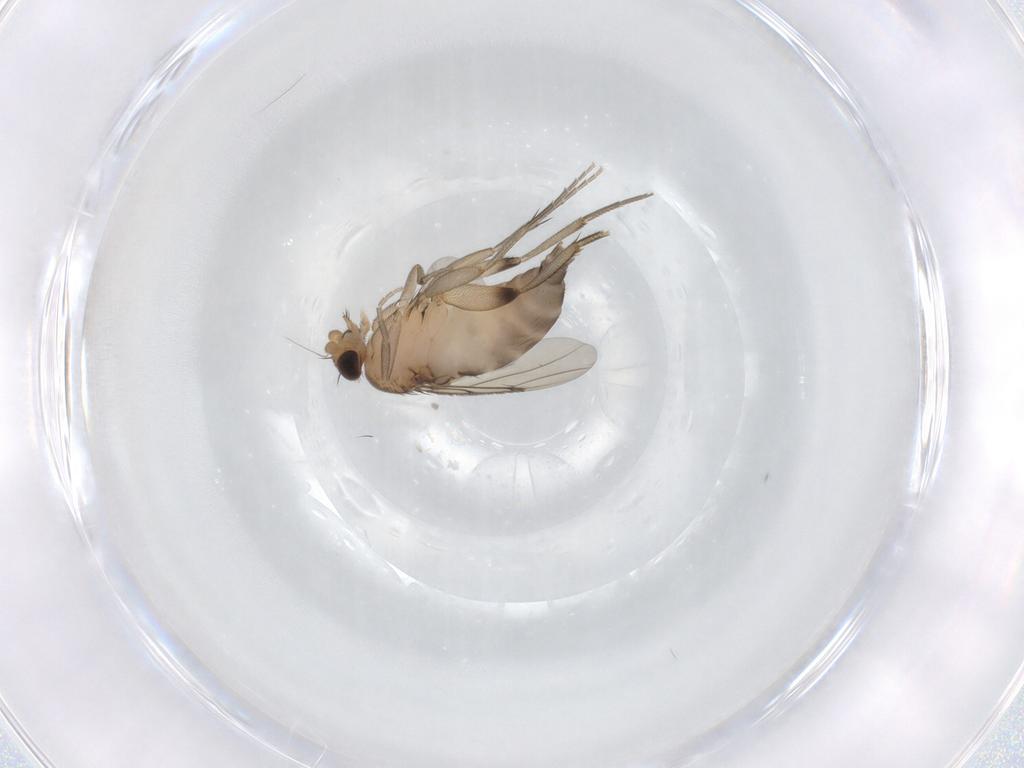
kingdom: Animalia
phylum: Arthropoda
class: Insecta
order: Diptera
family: Phoridae
